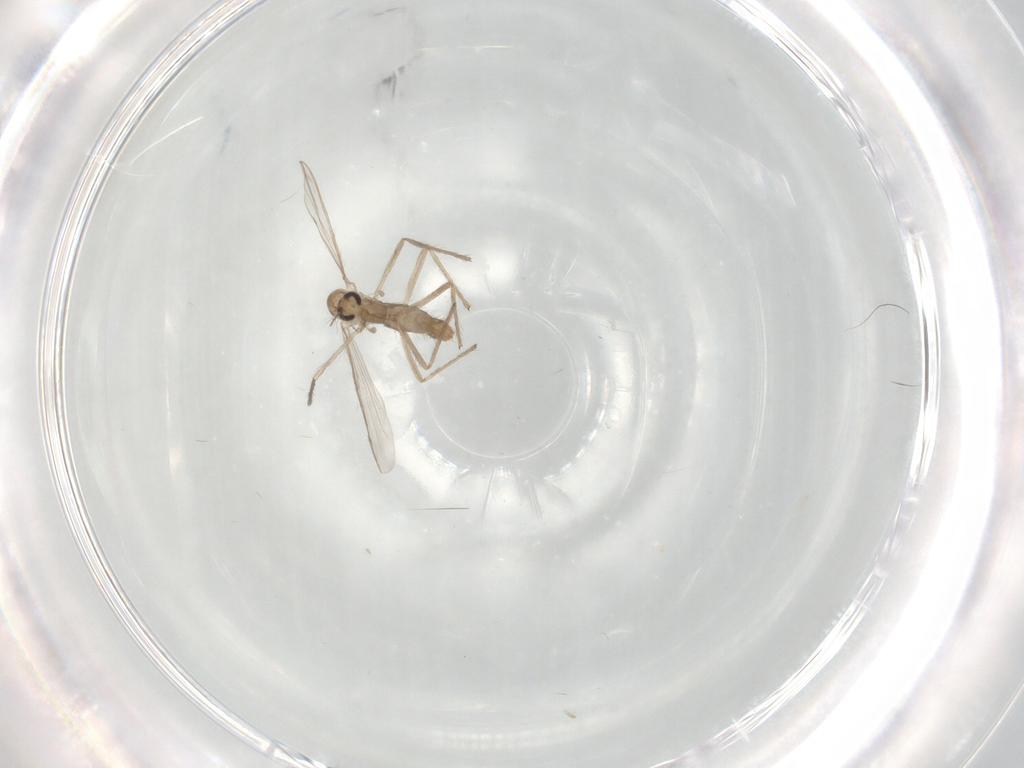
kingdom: Animalia
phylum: Arthropoda
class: Insecta
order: Diptera
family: Chironomidae
